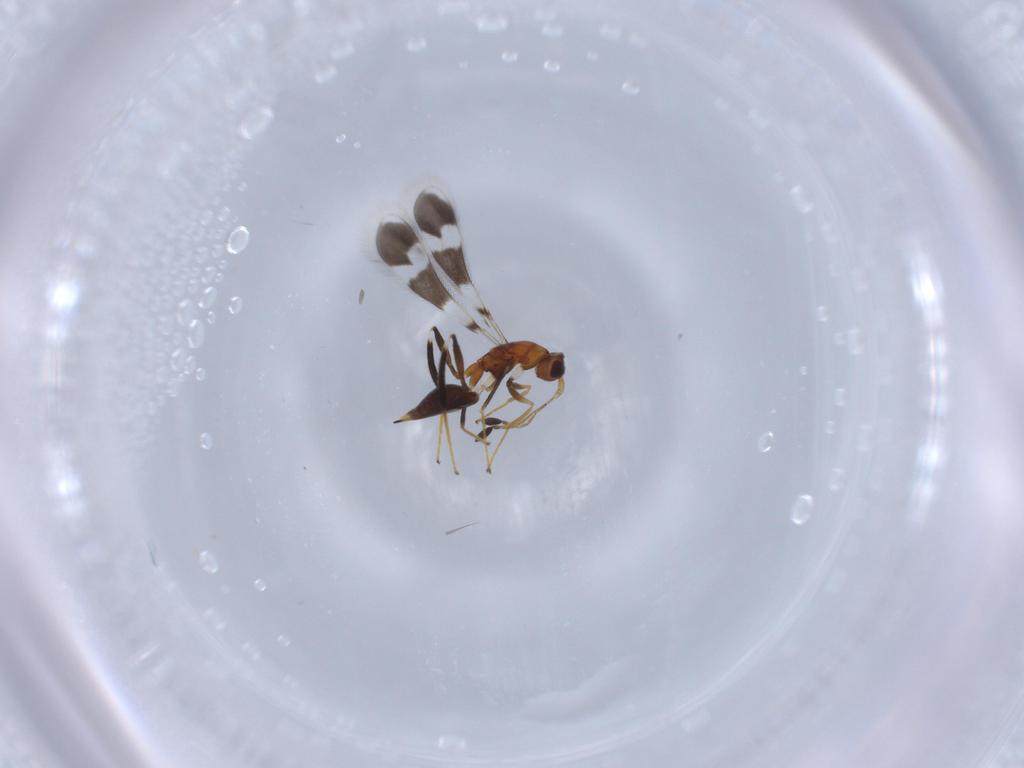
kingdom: Animalia
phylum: Arthropoda
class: Insecta
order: Hymenoptera
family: Mymaridae
